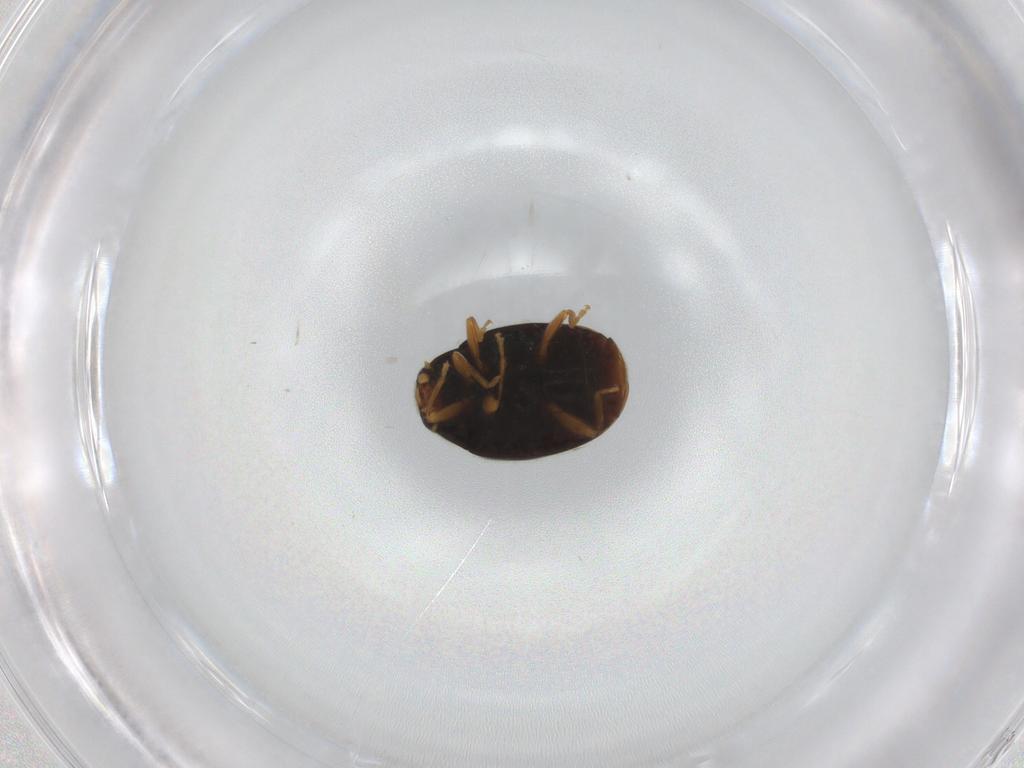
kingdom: Animalia
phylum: Arthropoda
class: Insecta
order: Coleoptera
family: Coccinellidae
